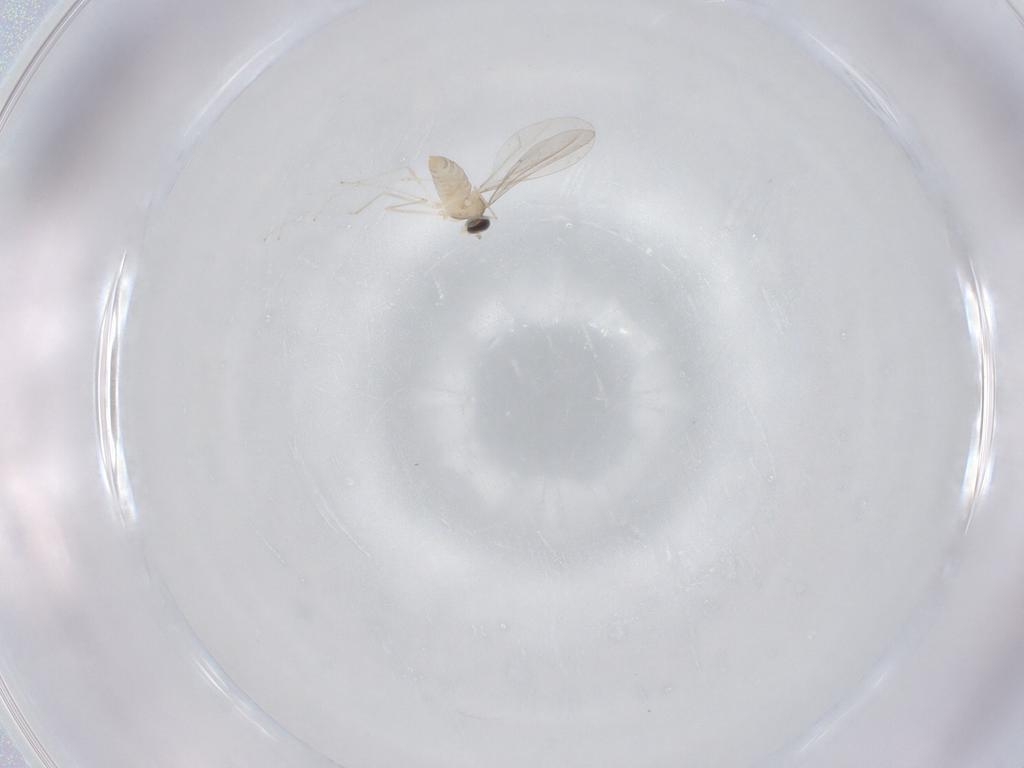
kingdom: Animalia
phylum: Arthropoda
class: Insecta
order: Diptera
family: Cecidomyiidae
